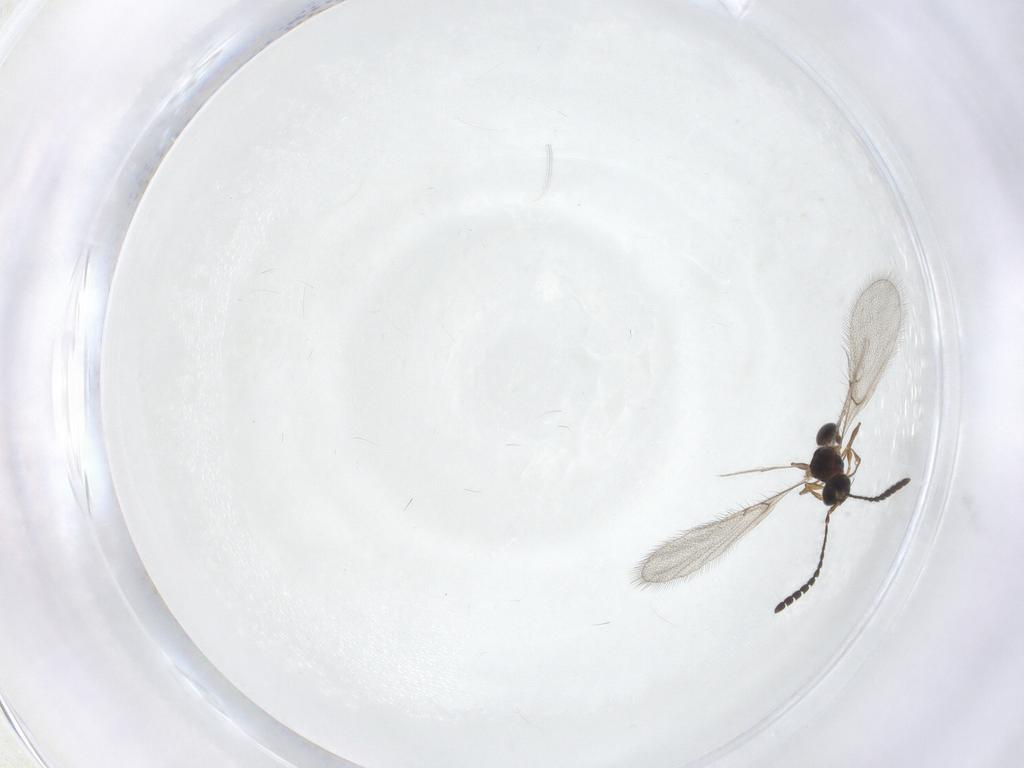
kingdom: Animalia
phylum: Arthropoda
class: Insecta
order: Hymenoptera
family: Diapriidae
